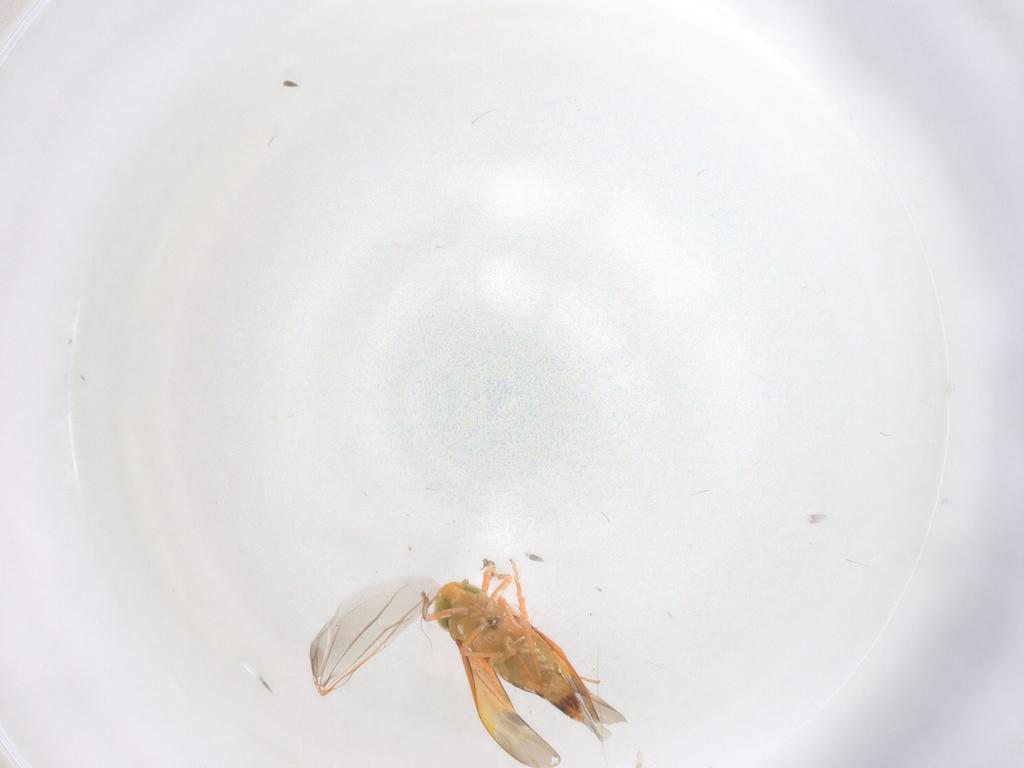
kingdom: Animalia
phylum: Arthropoda
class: Insecta
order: Hemiptera
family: Cicadellidae
